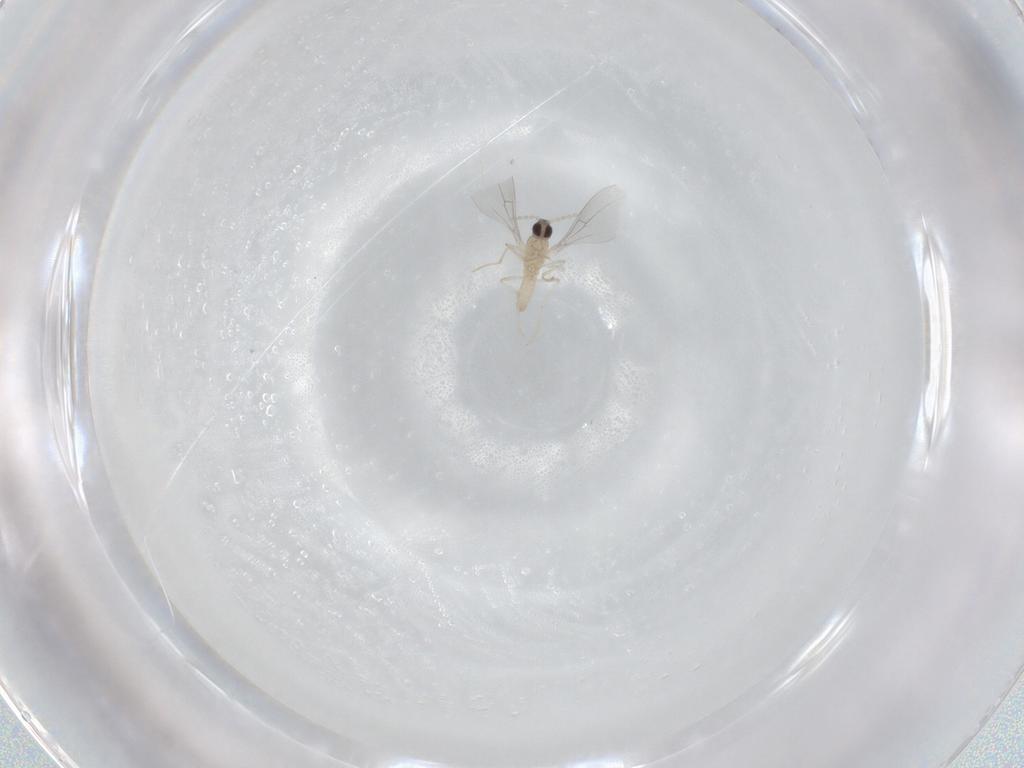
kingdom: Animalia
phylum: Arthropoda
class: Insecta
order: Diptera
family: Cecidomyiidae
